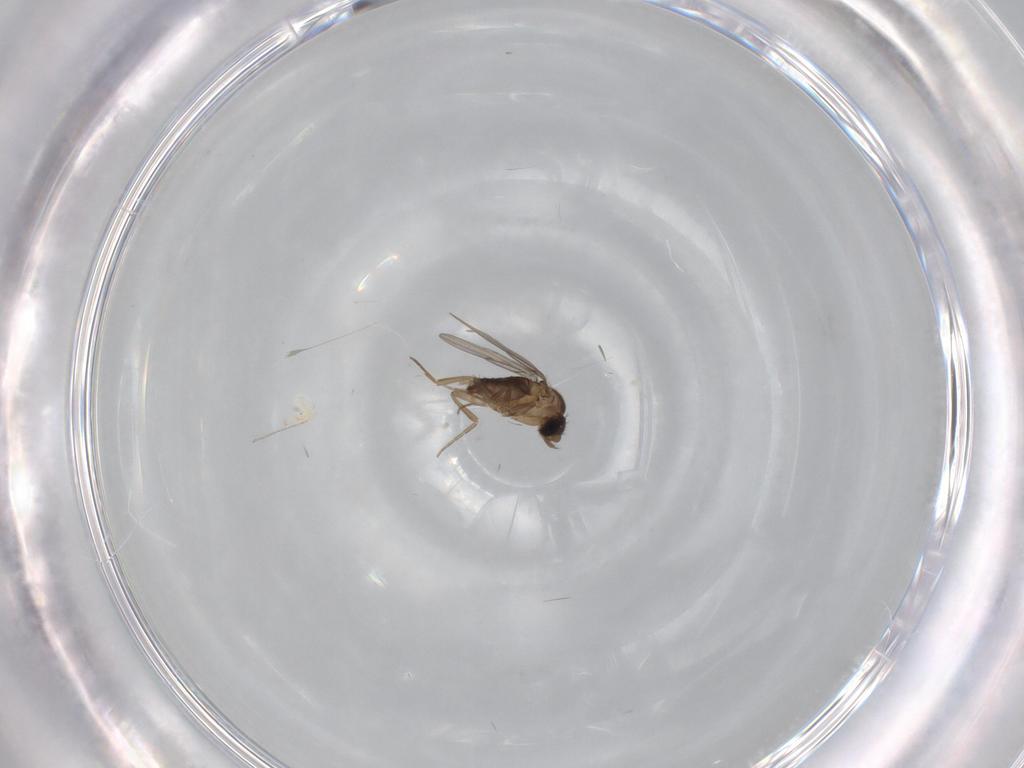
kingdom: Animalia
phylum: Arthropoda
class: Insecta
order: Diptera
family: Phoridae
